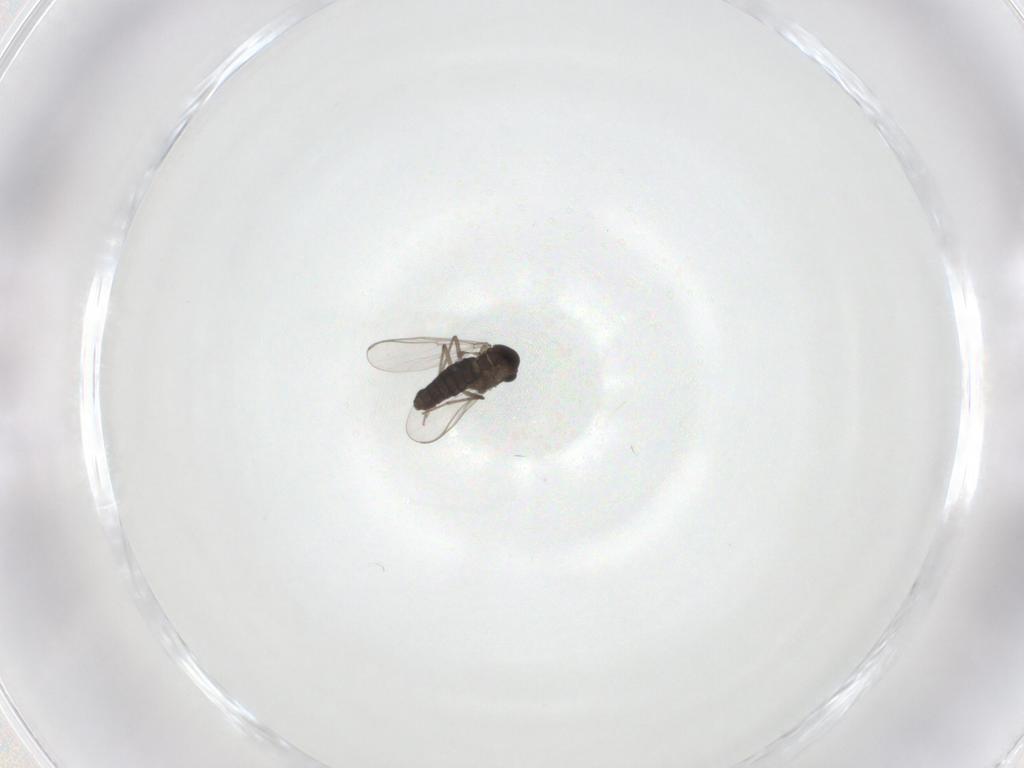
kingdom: Animalia
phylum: Arthropoda
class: Insecta
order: Diptera
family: Chironomidae
